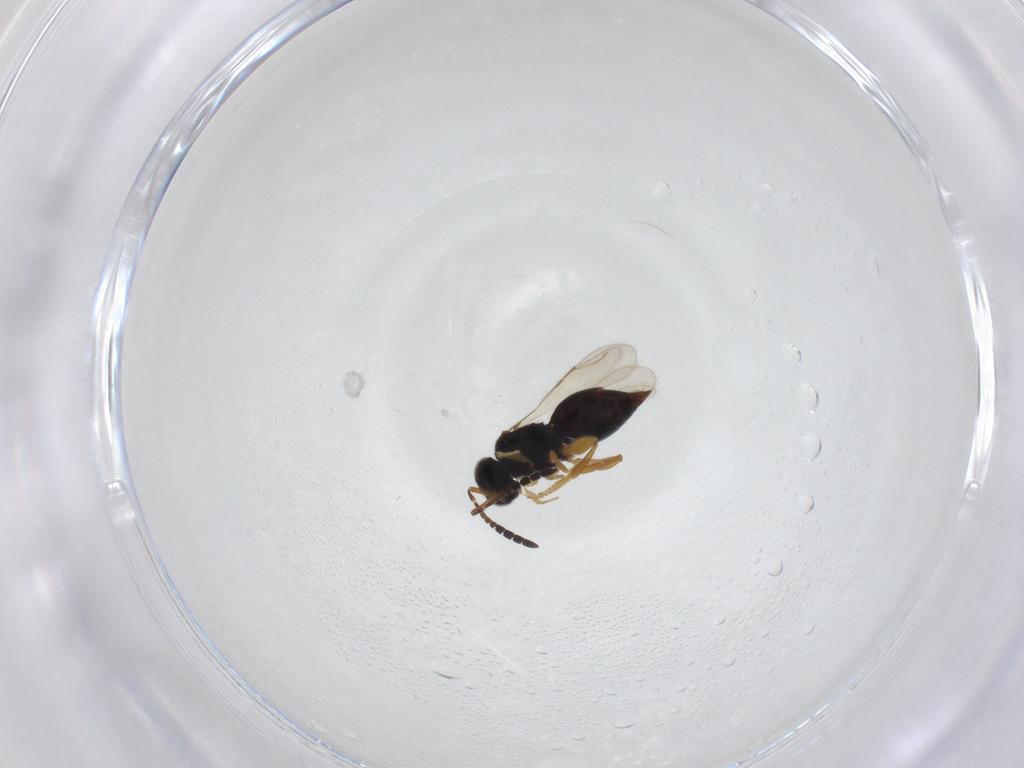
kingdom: Animalia
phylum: Arthropoda
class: Insecta
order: Hymenoptera
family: Ceraphronidae
